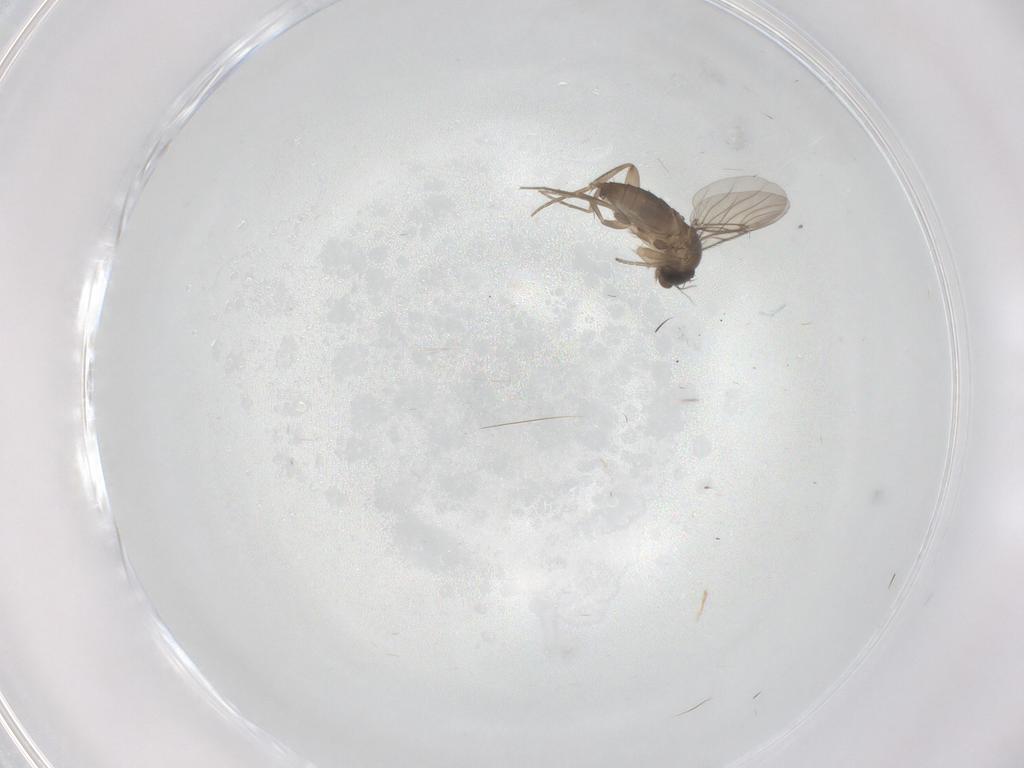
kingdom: Animalia
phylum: Arthropoda
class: Insecta
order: Diptera
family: Phoridae
